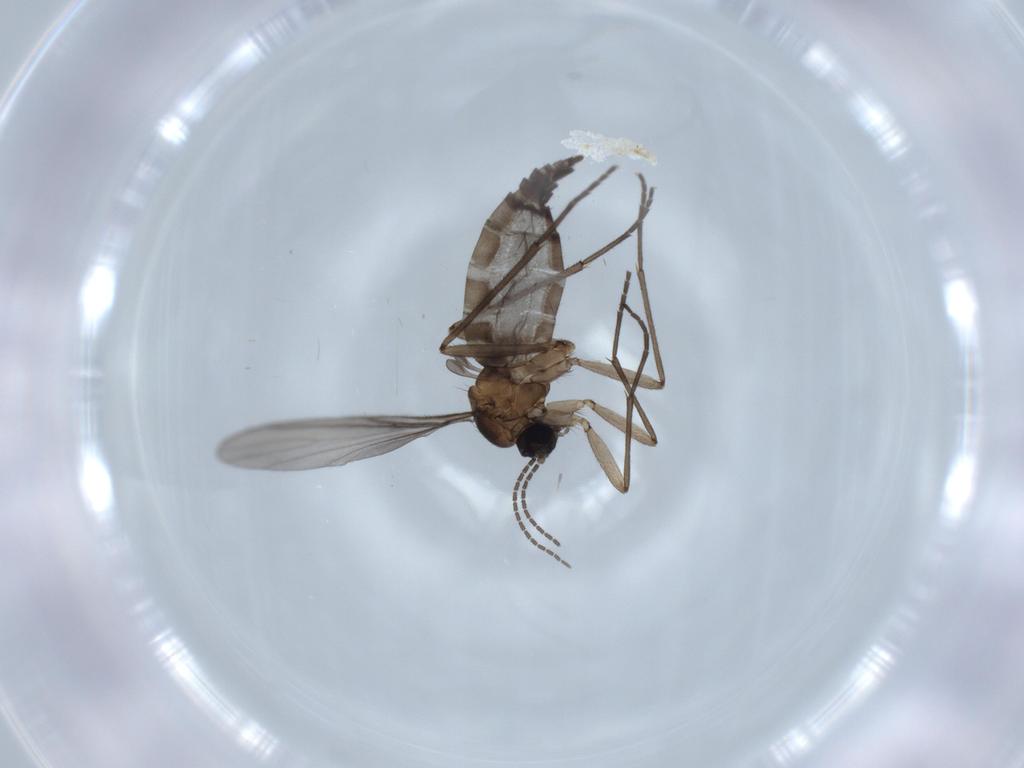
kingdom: Animalia
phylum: Arthropoda
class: Insecta
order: Diptera
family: Sciaridae
